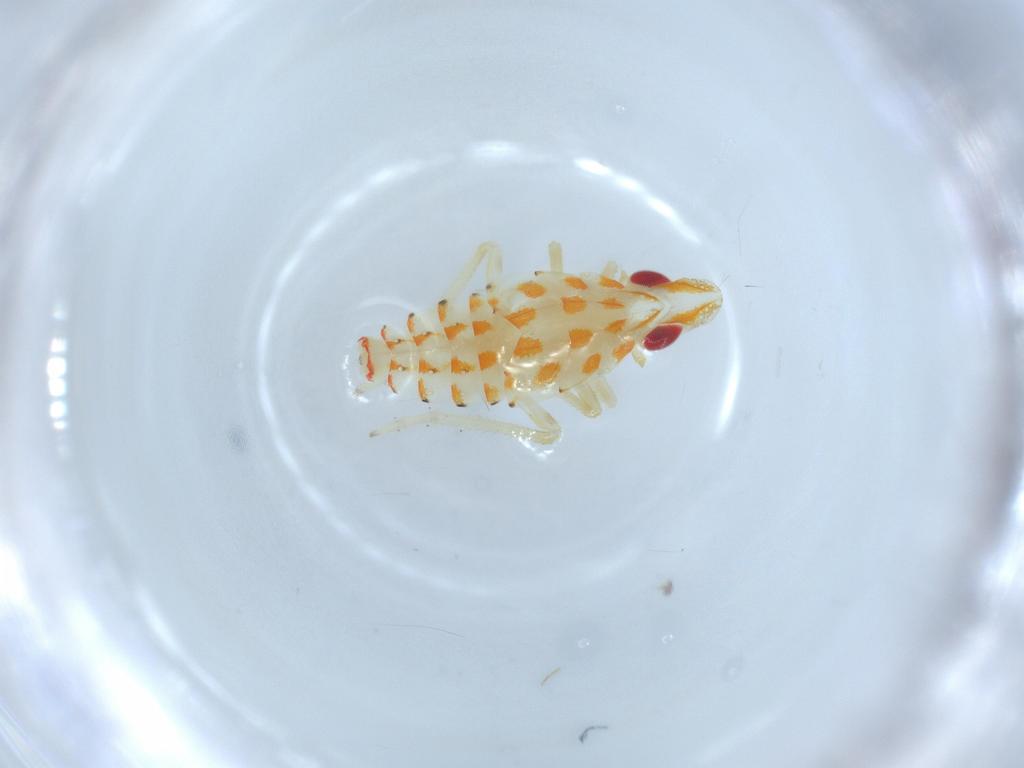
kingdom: Animalia
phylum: Arthropoda
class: Insecta
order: Hemiptera
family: Tropiduchidae
